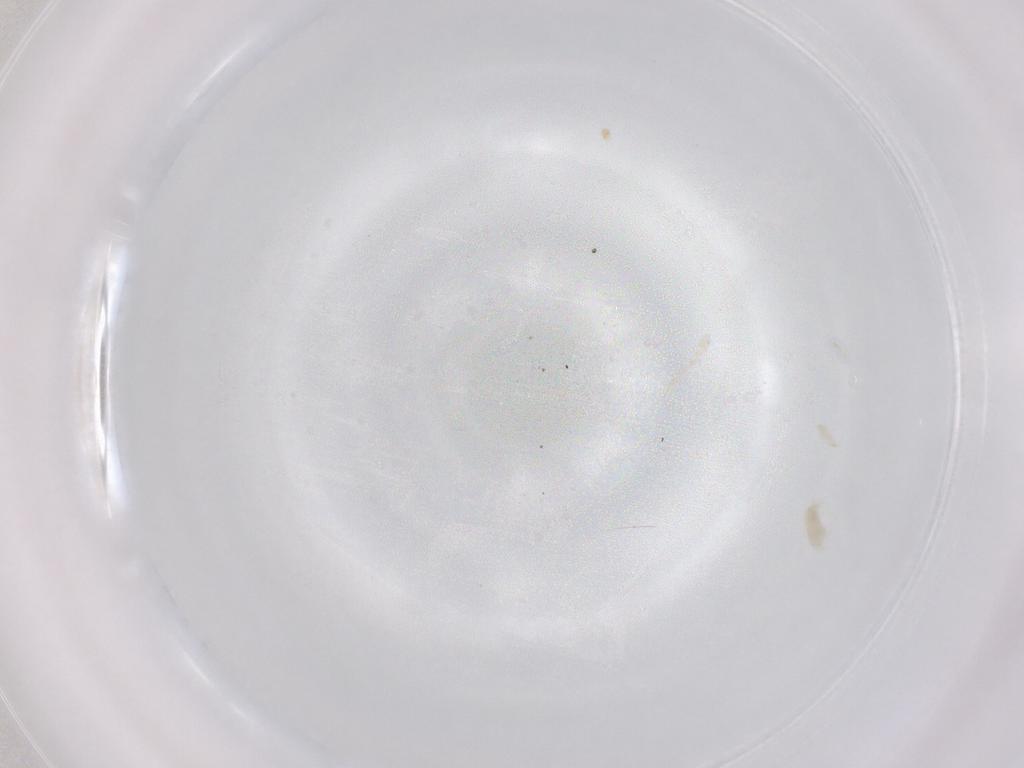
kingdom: Animalia
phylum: Arthropoda
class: Arachnida
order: Trombidiformes
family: Eupodidae
